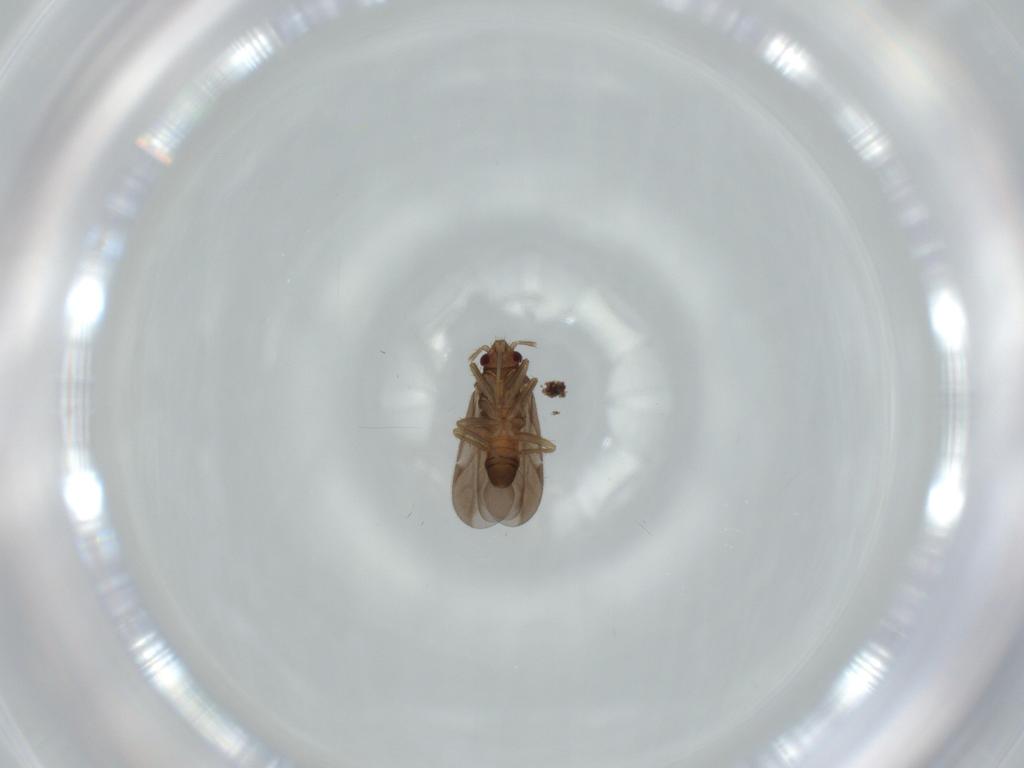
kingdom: Animalia
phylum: Arthropoda
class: Insecta
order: Hemiptera
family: Ceratocombidae
